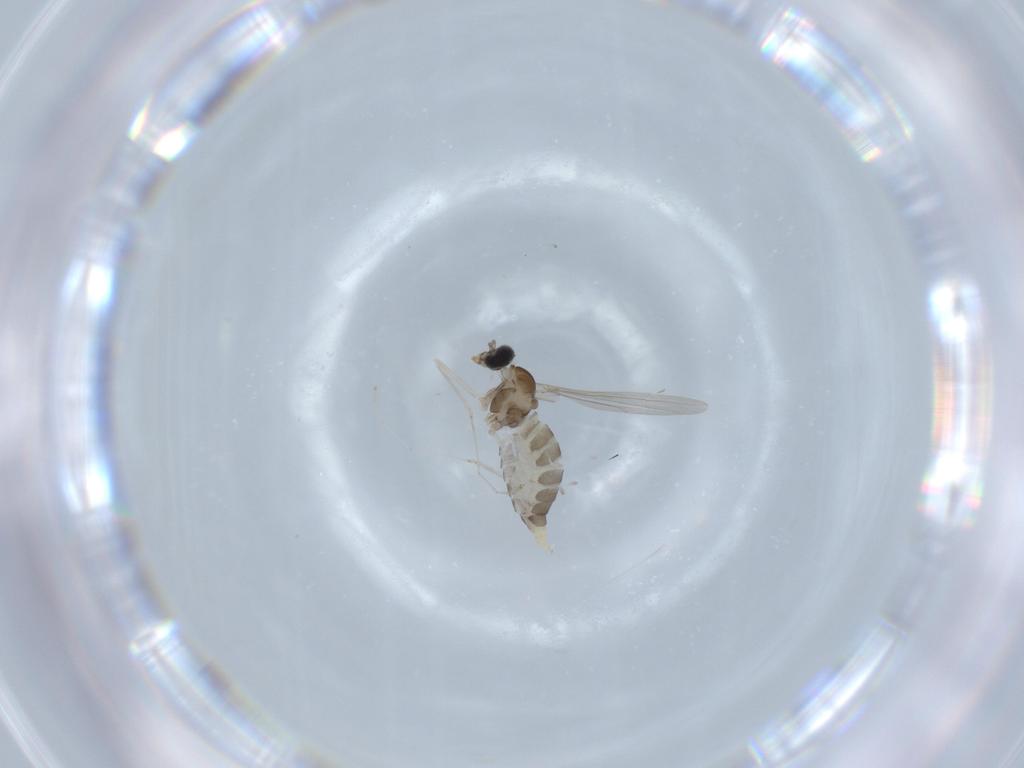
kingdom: Animalia
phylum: Arthropoda
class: Insecta
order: Diptera
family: Cecidomyiidae
